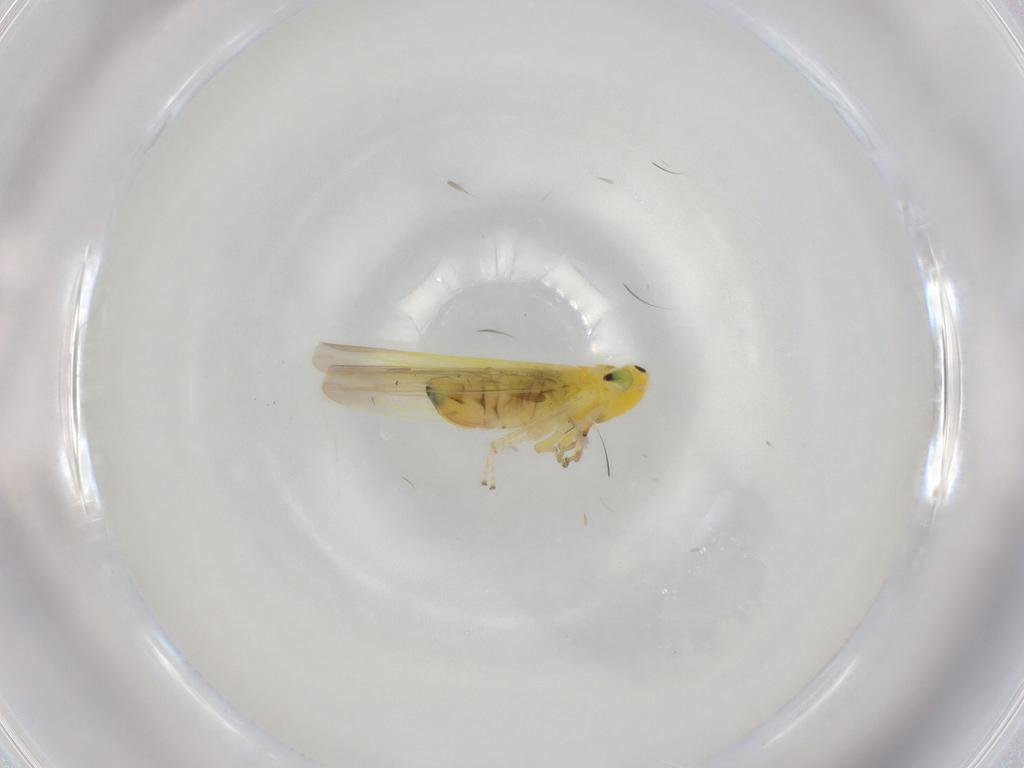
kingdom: Animalia
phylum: Arthropoda
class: Insecta
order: Hemiptera
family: Cicadellidae
